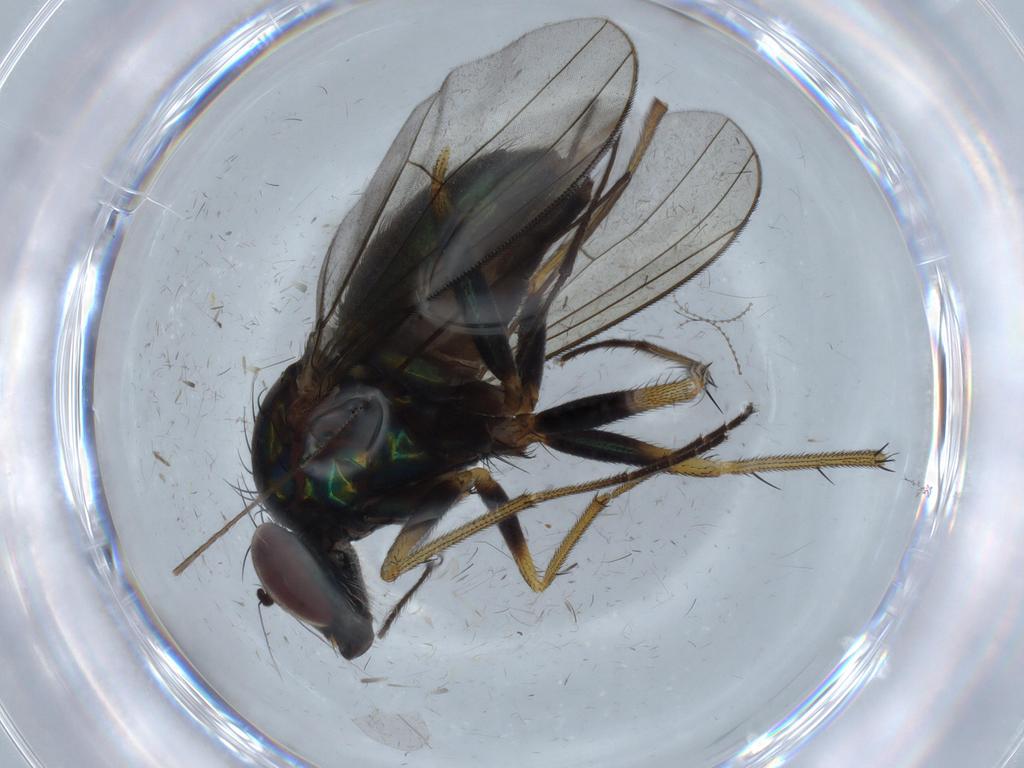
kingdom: Animalia
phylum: Arthropoda
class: Insecta
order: Diptera
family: Dolichopodidae
